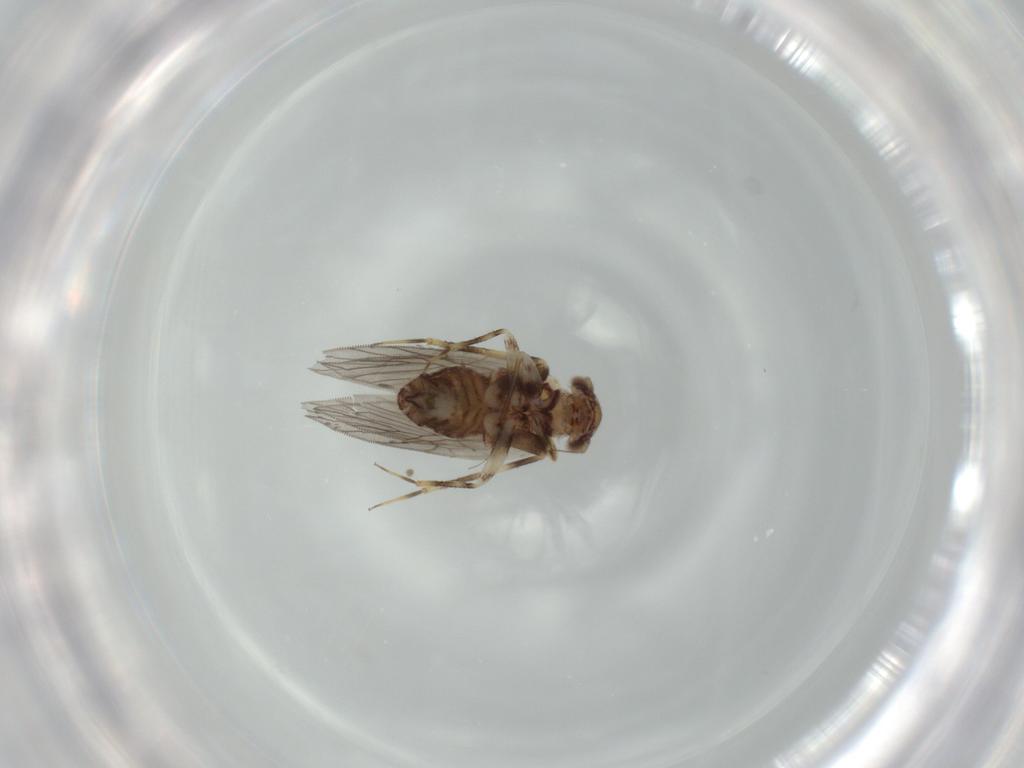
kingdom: Animalia
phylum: Arthropoda
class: Insecta
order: Psocodea
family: Lepidopsocidae
